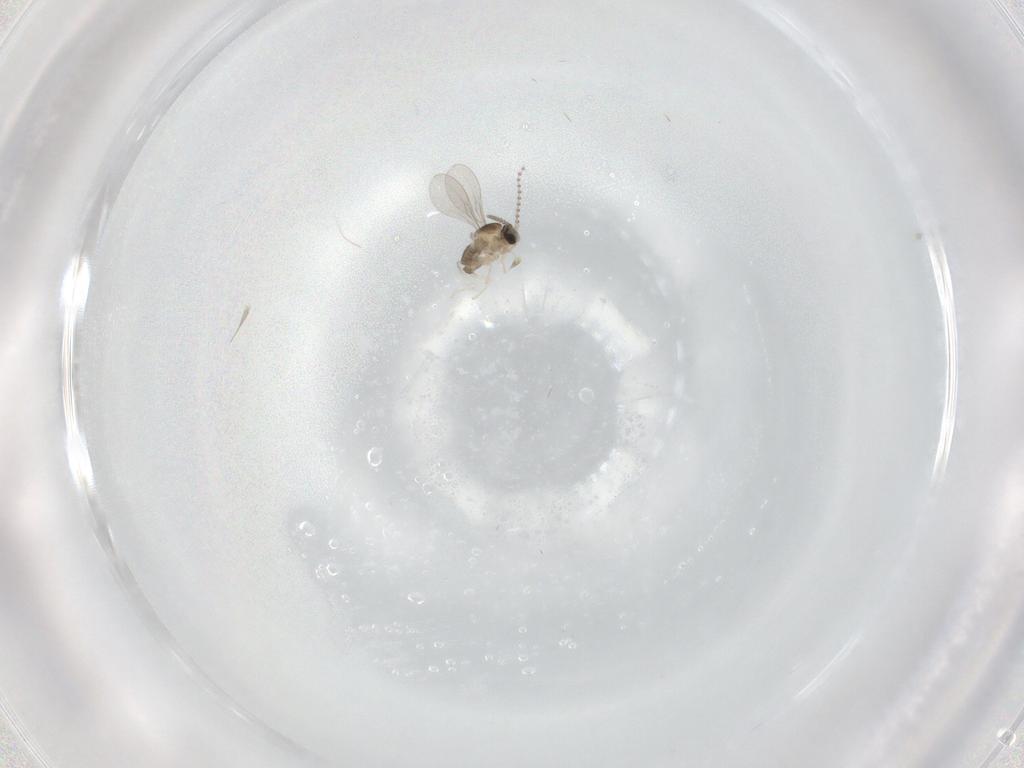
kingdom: Animalia
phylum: Arthropoda
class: Insecta
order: Diptera
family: Cecidomyiidae
